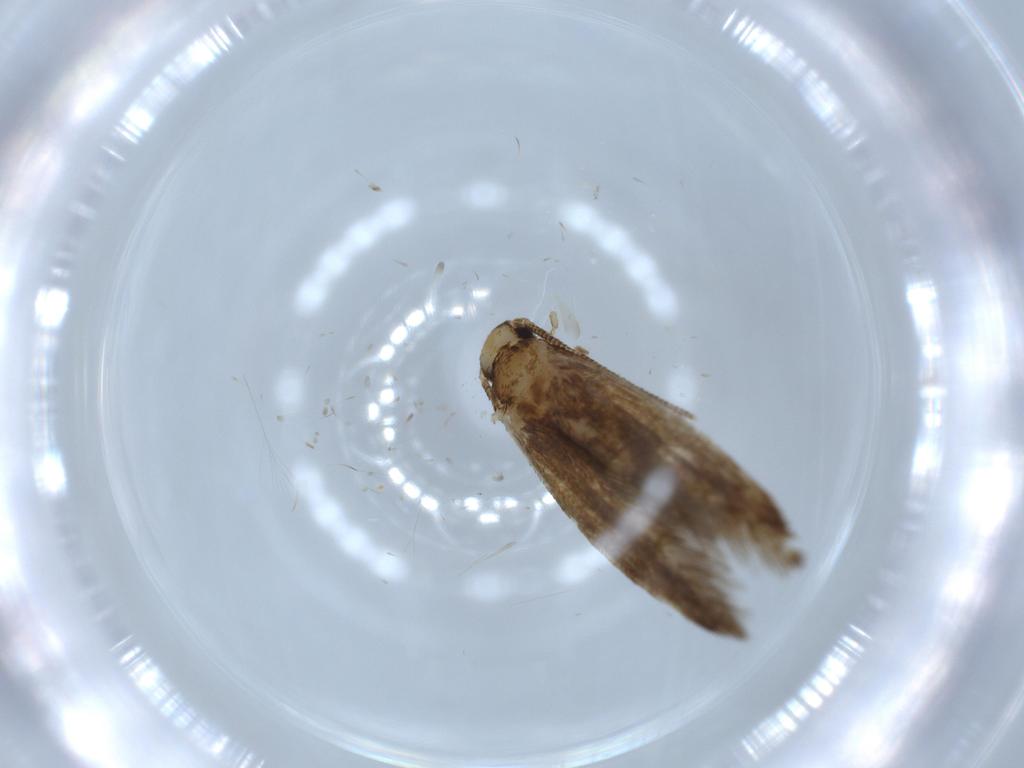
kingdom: Animalia
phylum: Arthropoda
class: Insecta
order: Lepidoptera
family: Tineidae
